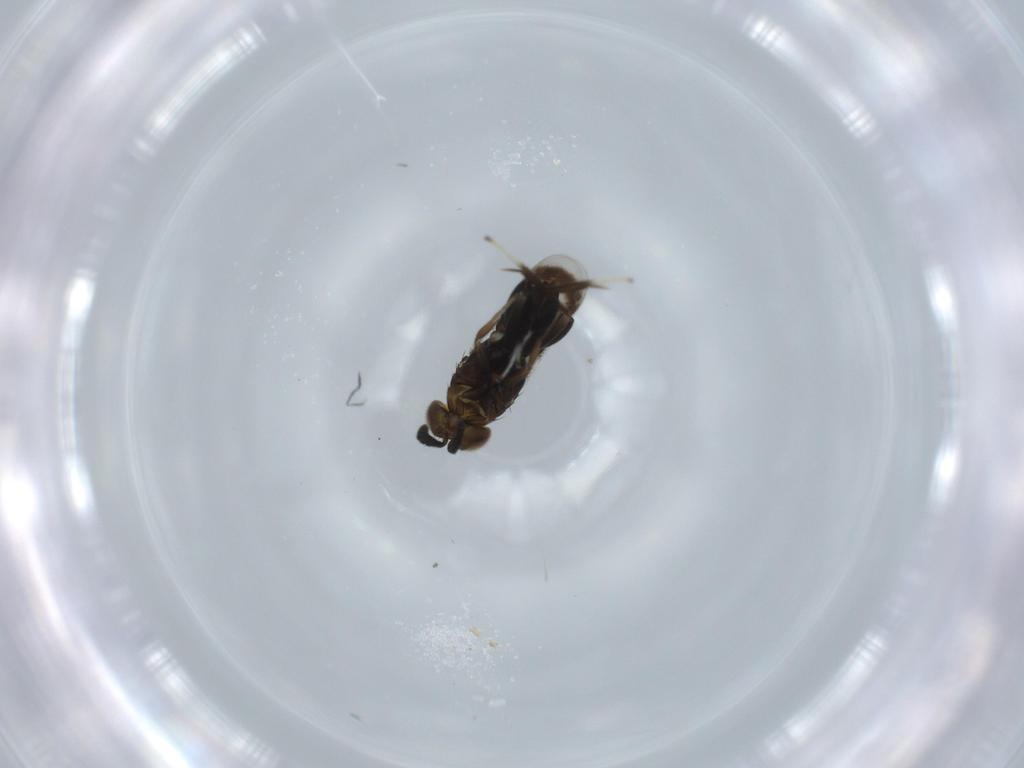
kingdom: Animalia
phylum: Arthropoda
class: Insecta
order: Hymenoptera
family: Aphelinidae
